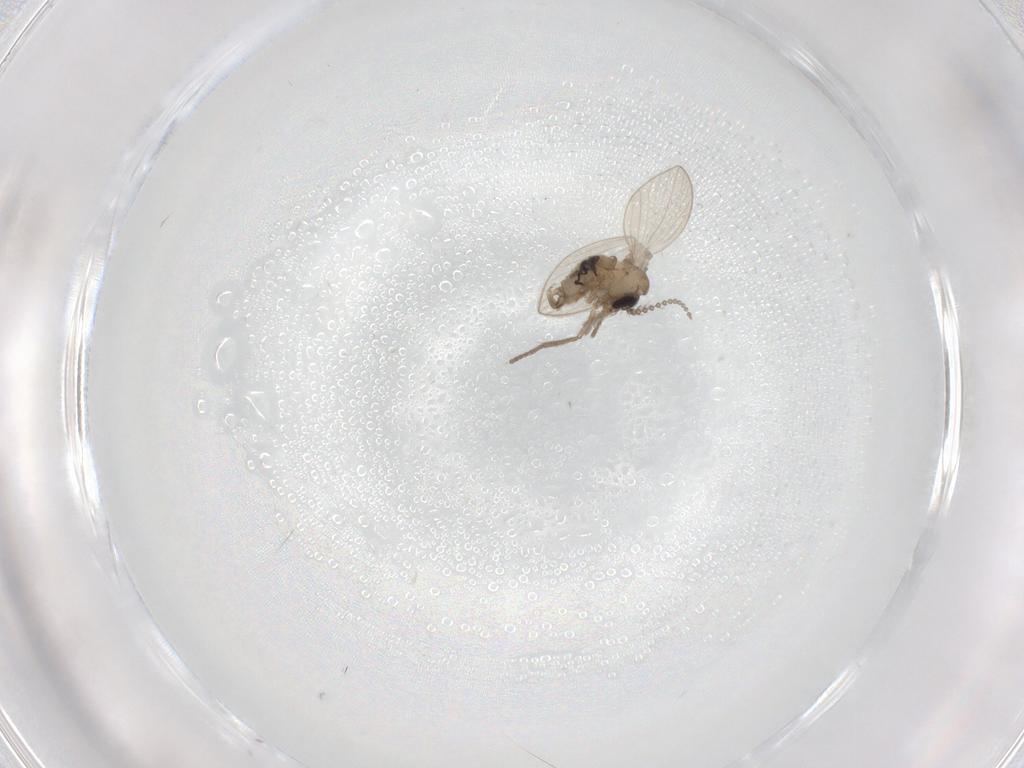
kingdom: Animalia
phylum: Arthropoda
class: Insecta
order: Diptera
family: Psychodidae
